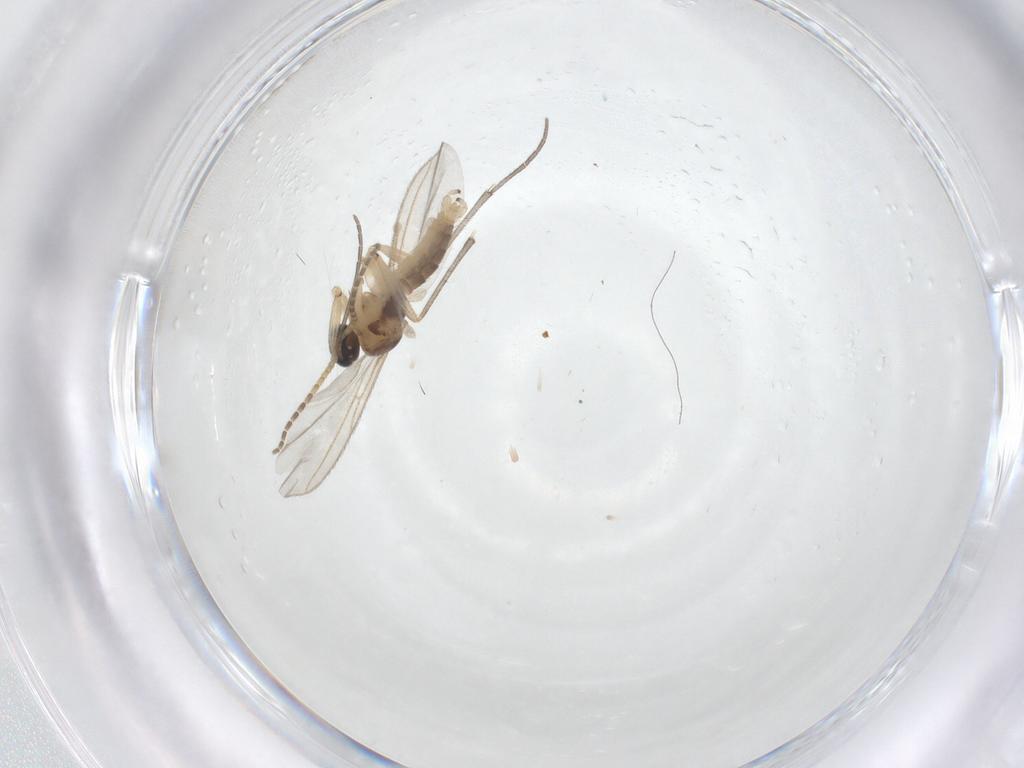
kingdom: Animalia
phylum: Arthropoda
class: Insecta
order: Diptera
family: Sciaridae
